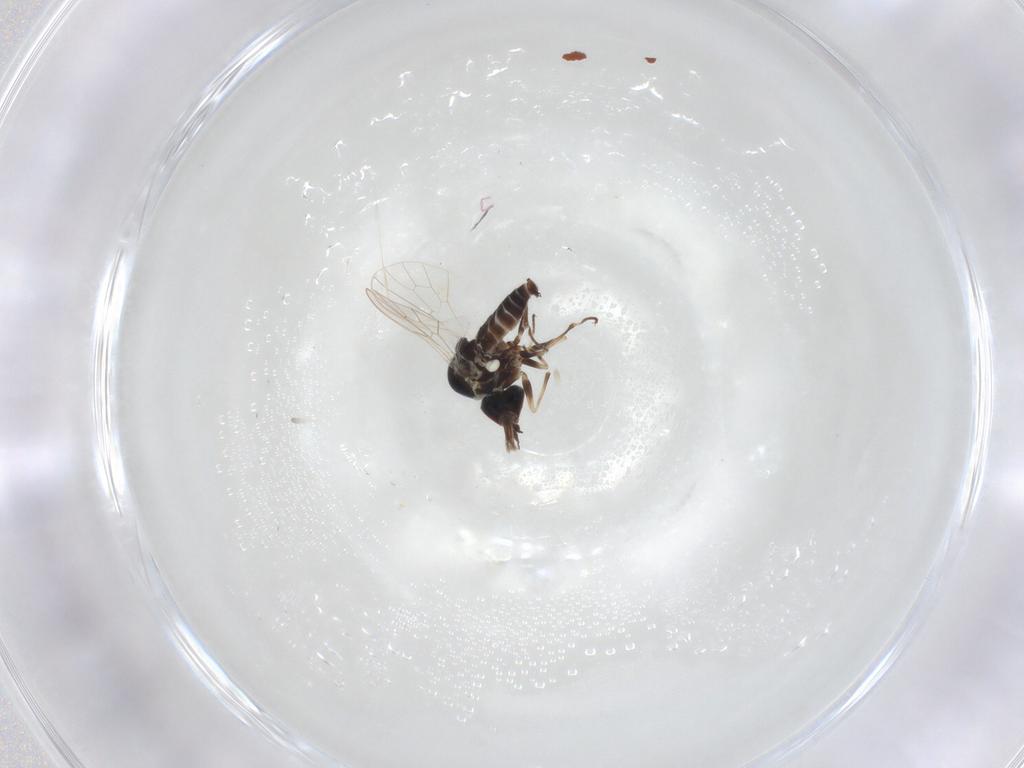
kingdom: Animalia
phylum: Arthropoda
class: Insecta
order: Diptera
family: Bombyliidae
